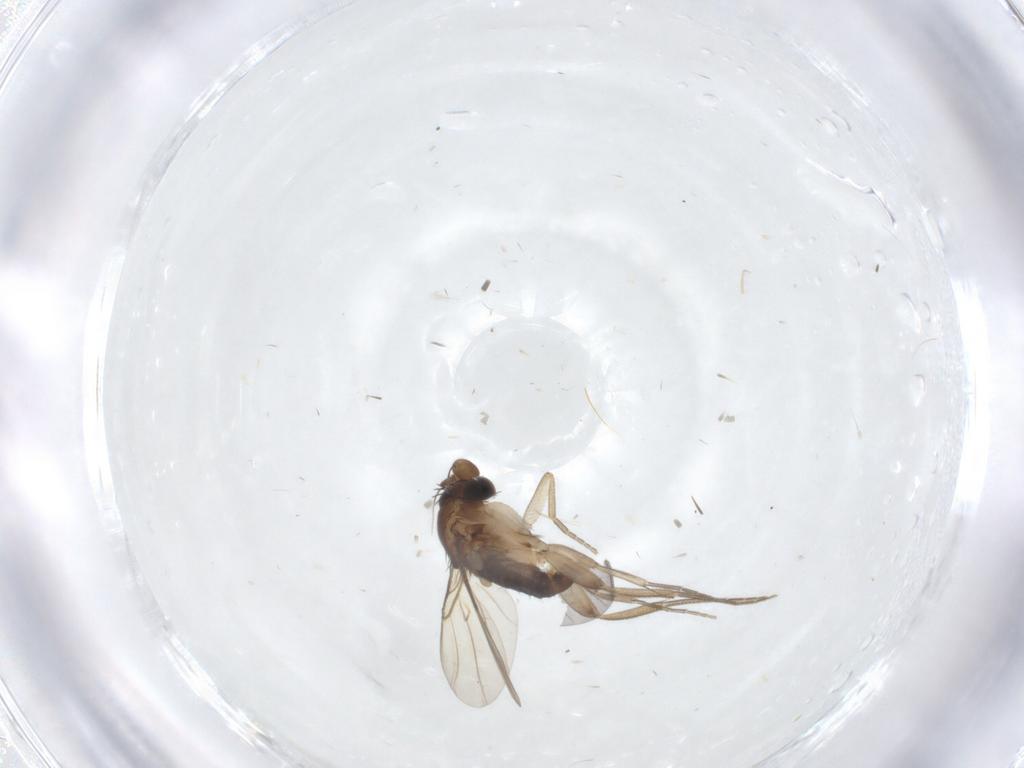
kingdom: Animalia
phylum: Arthropoda
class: Insecta
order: Diptera
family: Phoridae
